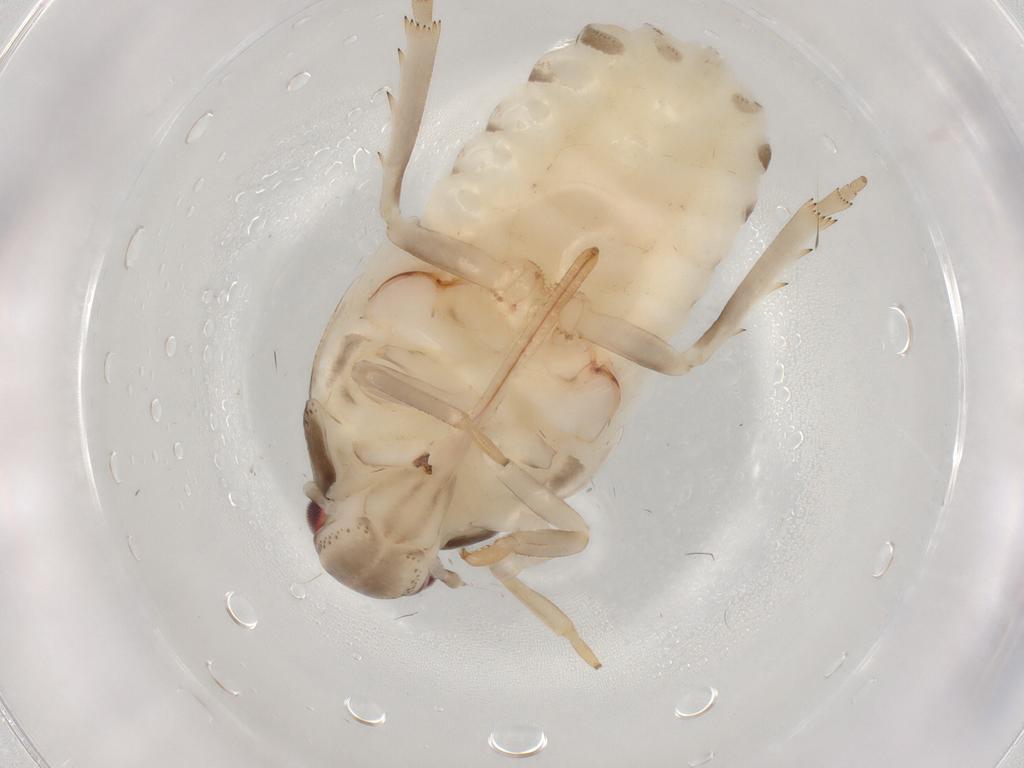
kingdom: Animalia
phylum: Arthropoda
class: Insecta
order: Hemiptera
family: Flatidae
